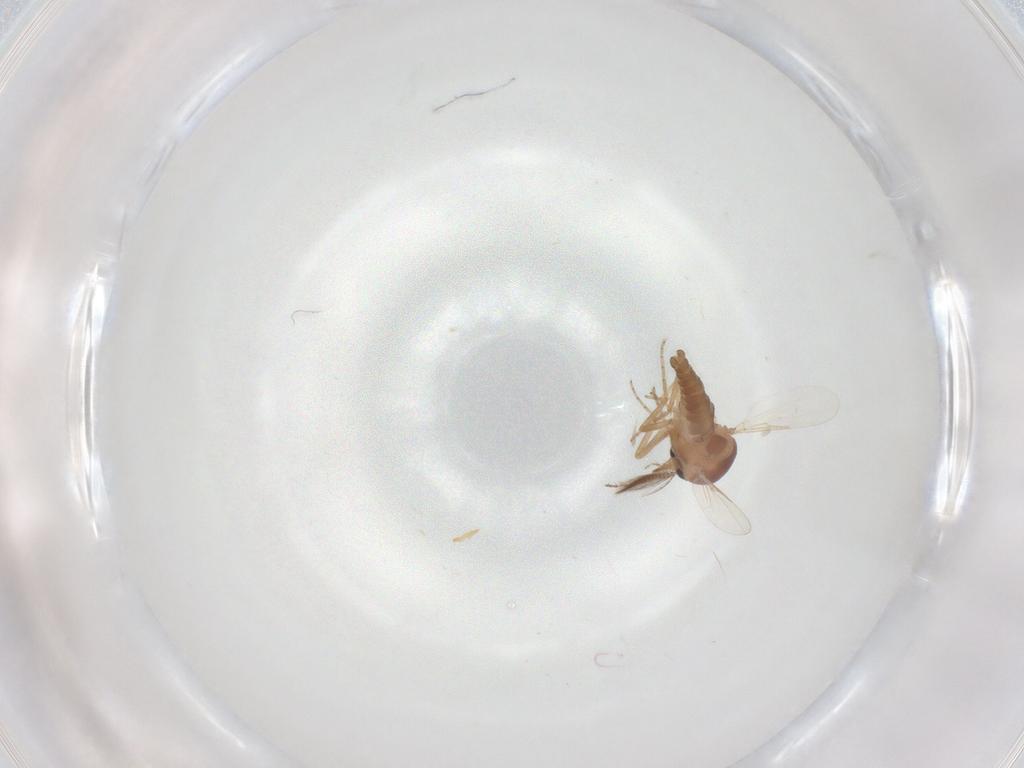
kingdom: Animalia
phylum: Arthropoda
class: Insecta
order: Diptera
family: Ceratopogonidae
